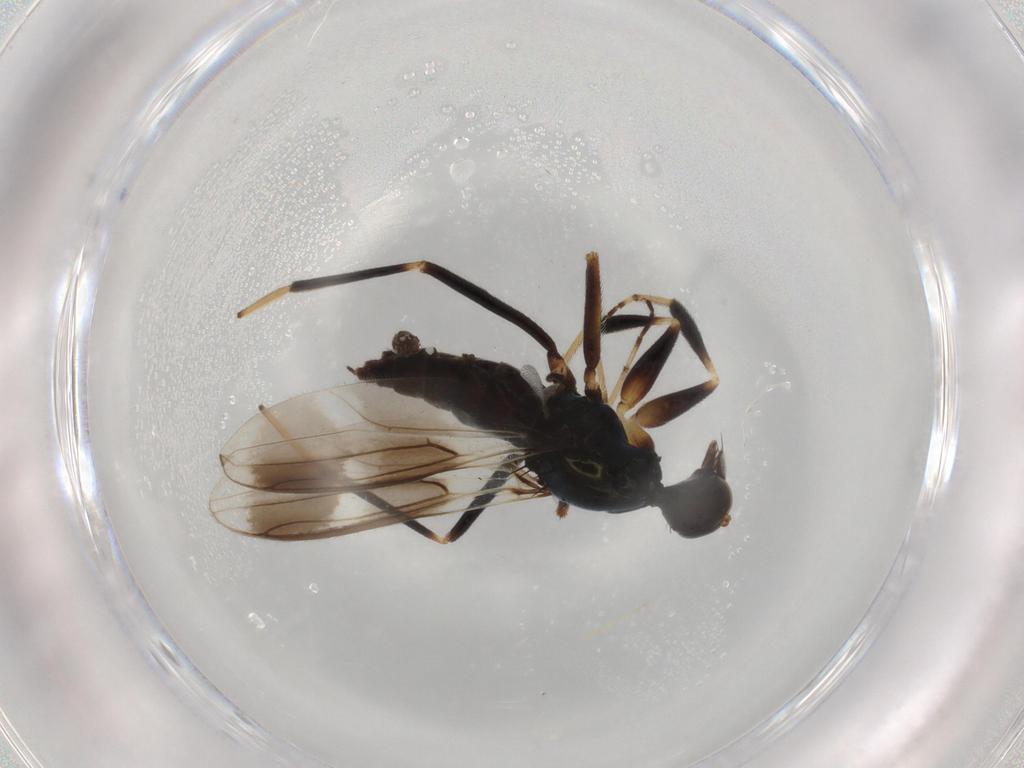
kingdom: Animalia
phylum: Arthropoda
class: Insecta
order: Diptera
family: Heleomyzidae
